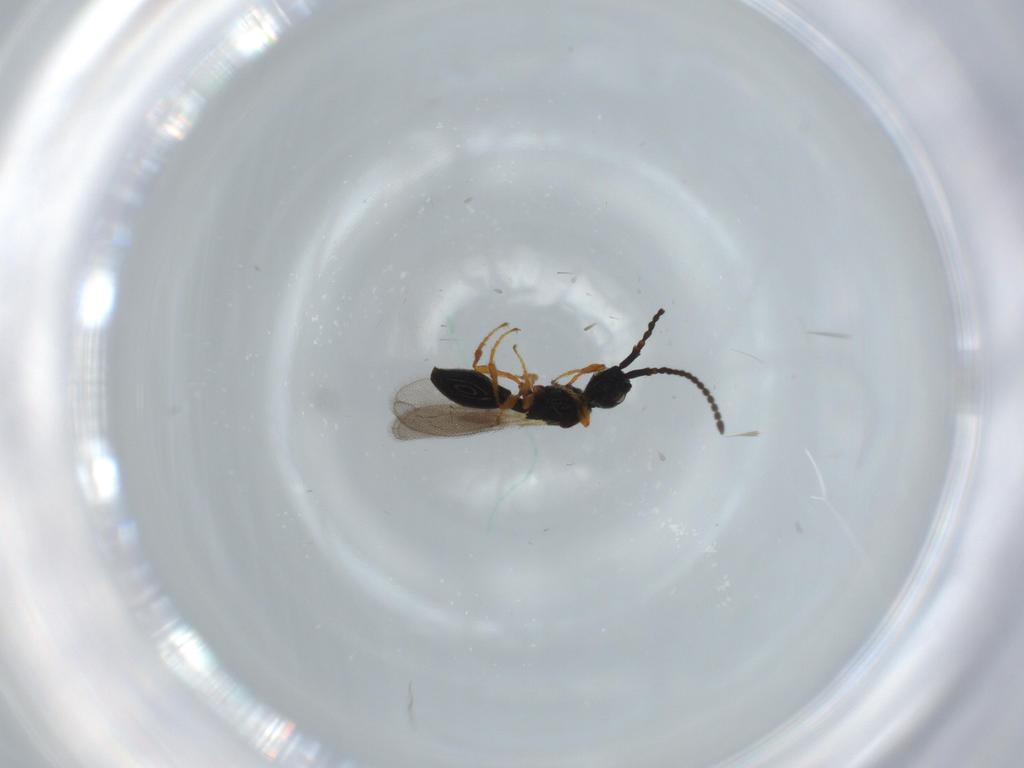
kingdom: Animalia
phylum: Arthropoda
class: Insecta
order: Hymenoptera
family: Diapriidae
